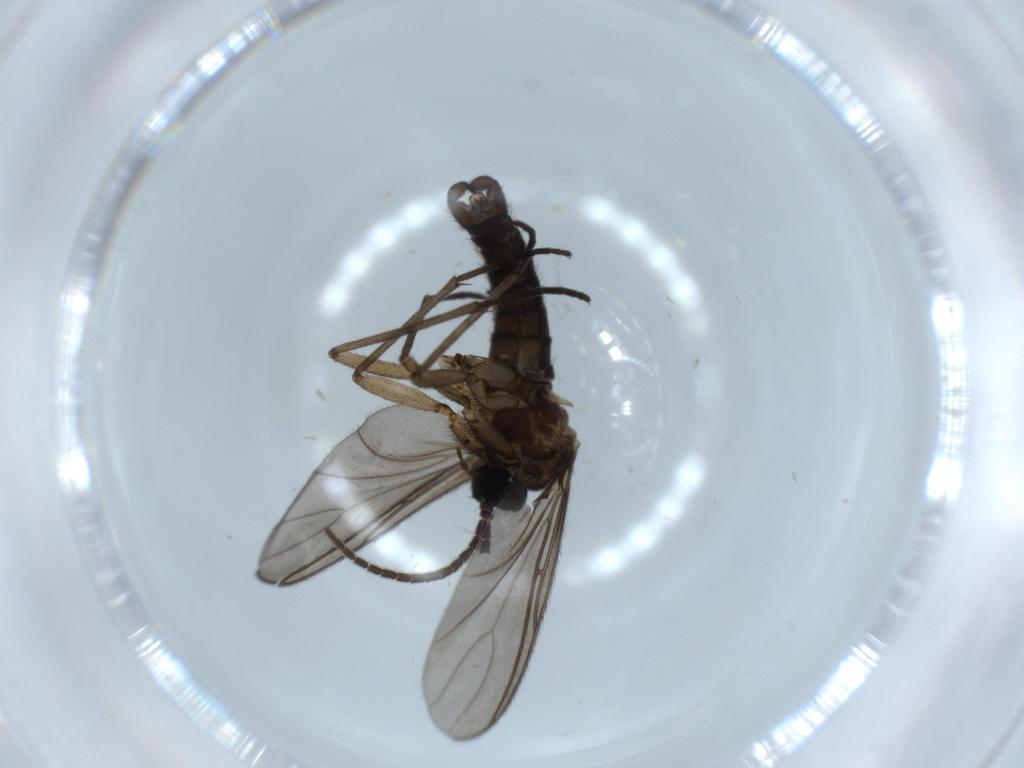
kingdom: Animalia
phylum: Arthropoda
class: Insecta
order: Diptera
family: Sciaridae
